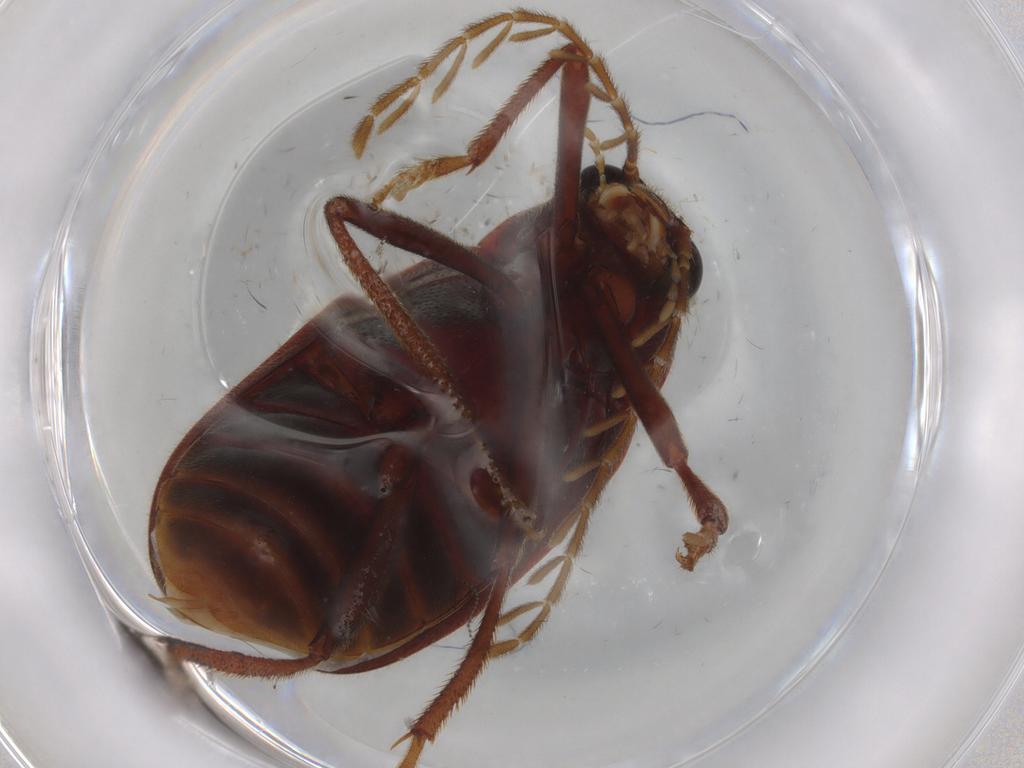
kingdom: Animalia
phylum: Arthropoda
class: Insecta
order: Coleoptera
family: Ptilodactylidae
